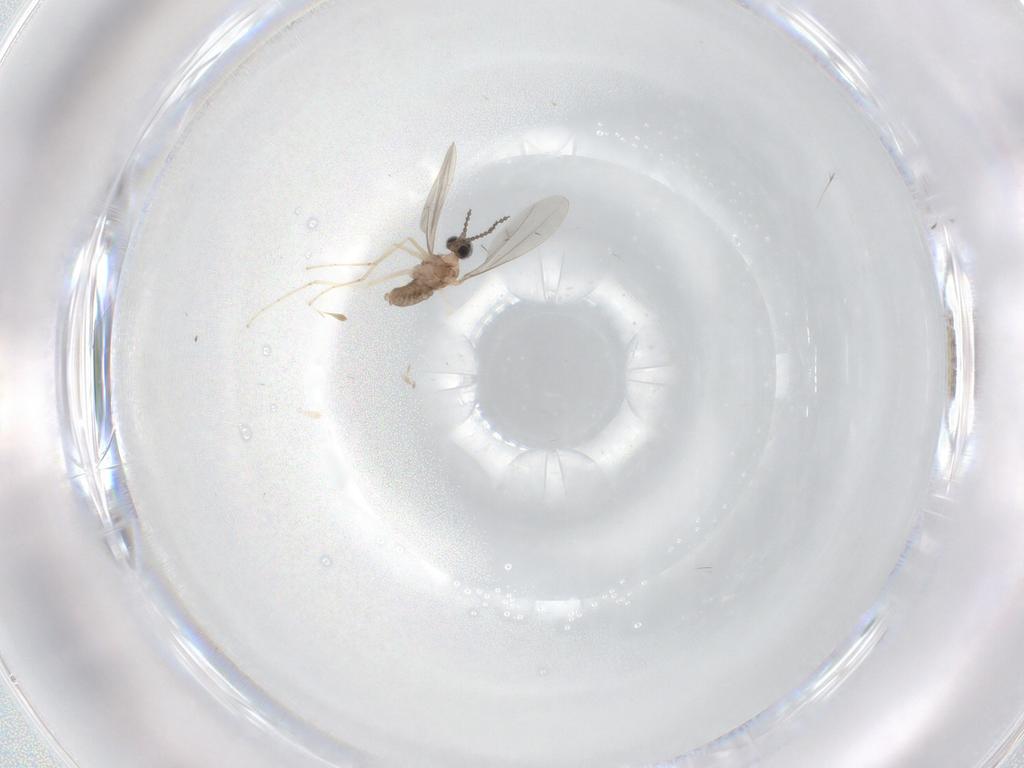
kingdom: Animalia
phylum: Arthropoda
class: Insecta
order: Diptera
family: Cecidomyiidae
